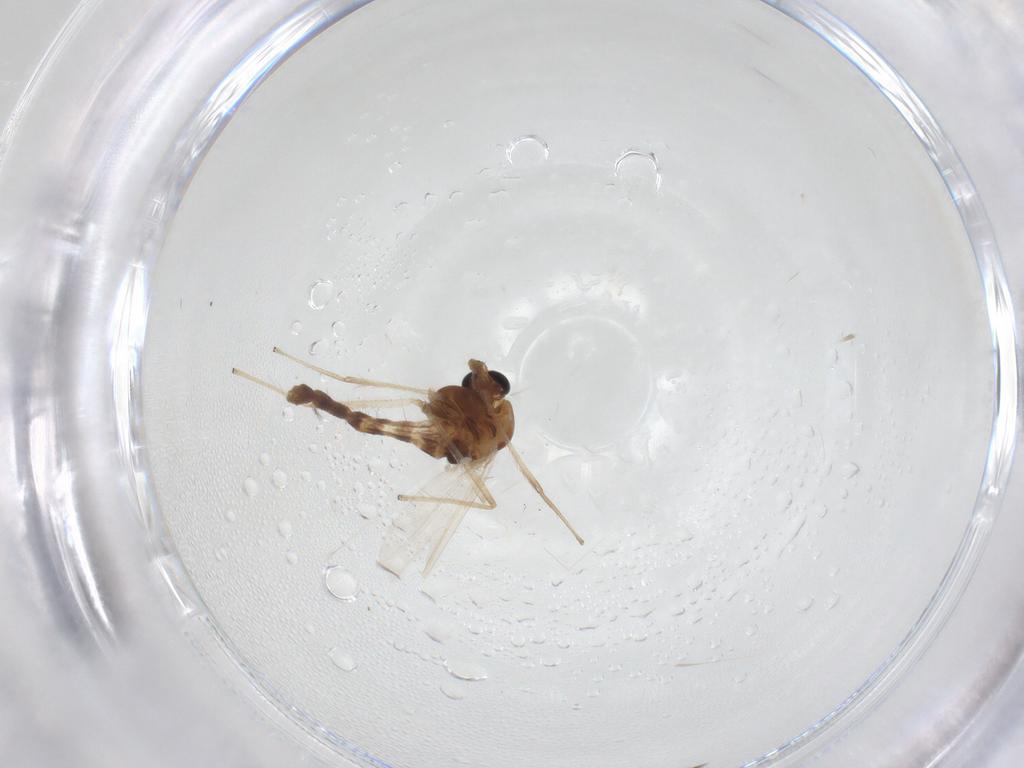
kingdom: Animalia
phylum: Arthropoda
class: Insecta
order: Diptera
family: Chironomidae
